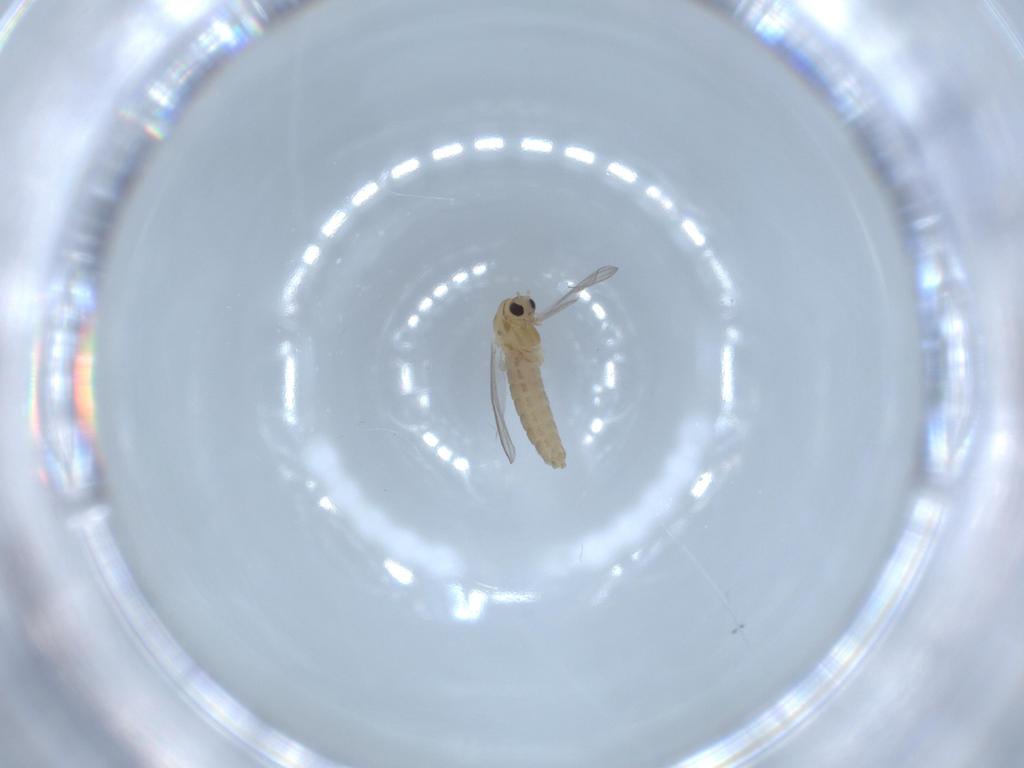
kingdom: Animalia
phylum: Arthropoda
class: Insecta
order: Diptera
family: Chironomidae
